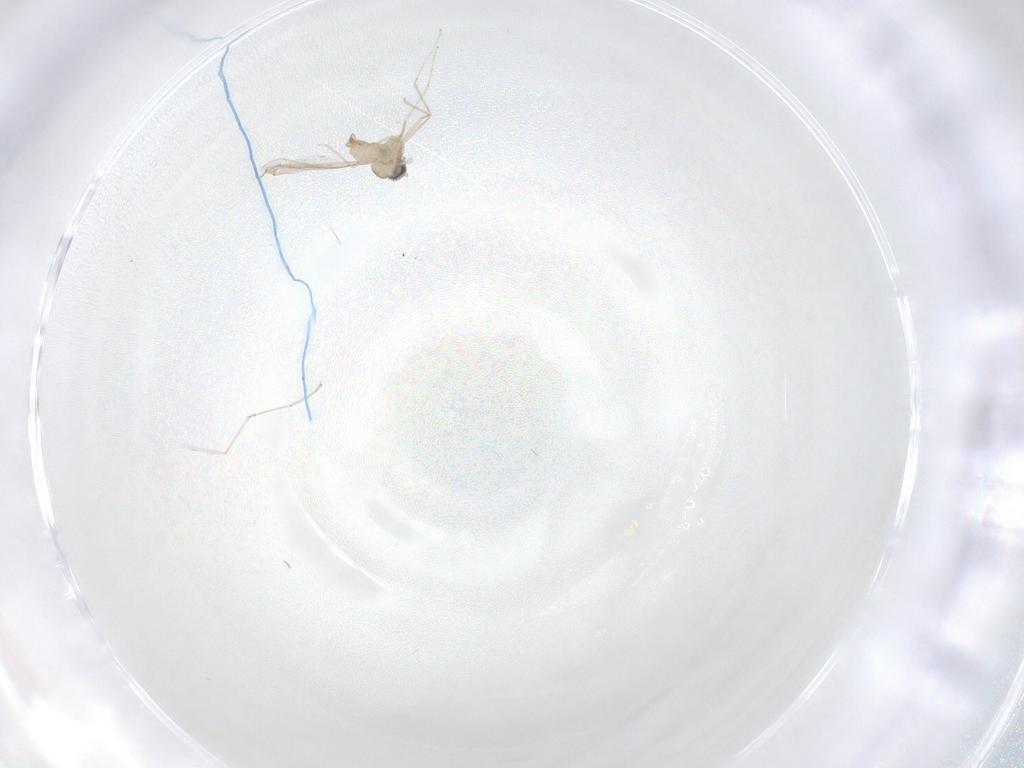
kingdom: Animalia
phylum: Arthropoda
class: Insecta
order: Diptera
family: Cecidomyiidae
